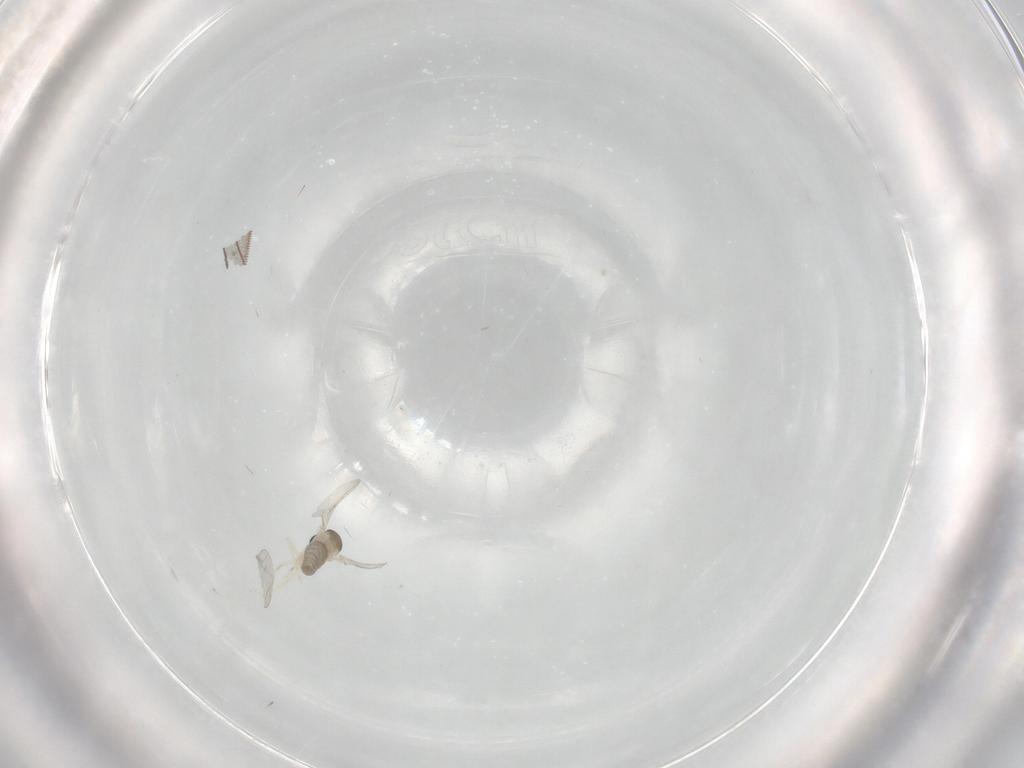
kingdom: Animalia
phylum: Arthropoda
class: Insecta
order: Diptera
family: Cecidomyiidae
